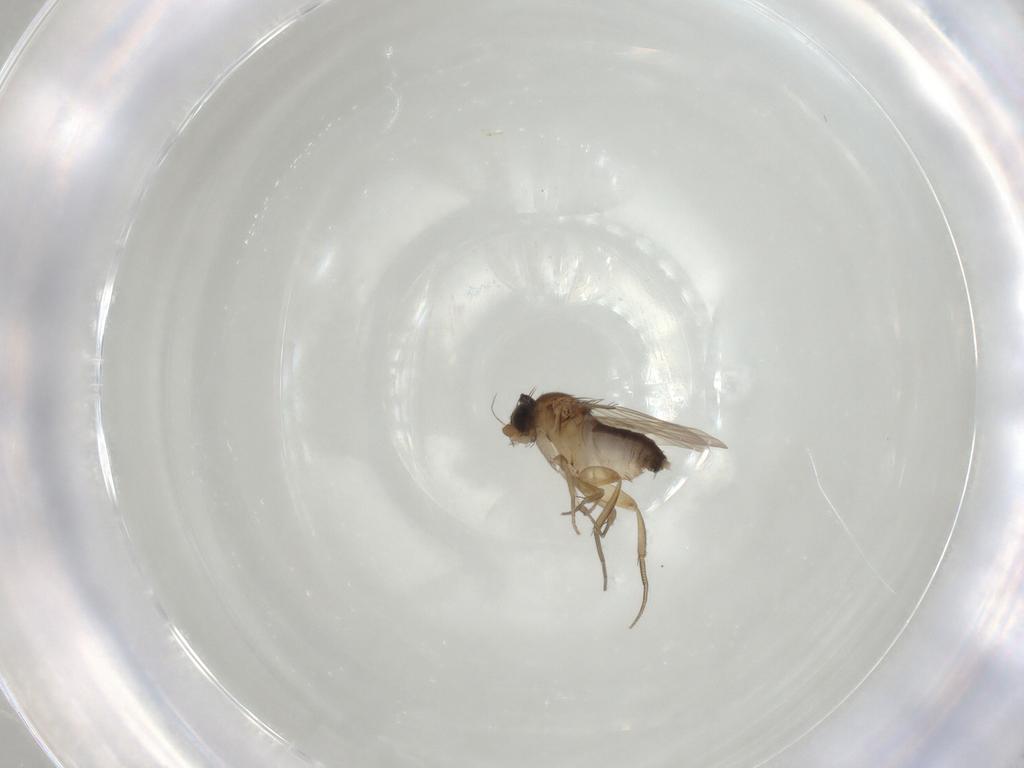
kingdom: Animalia
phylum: Arthropoda
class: Insecta
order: Diptera
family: Phoridae
